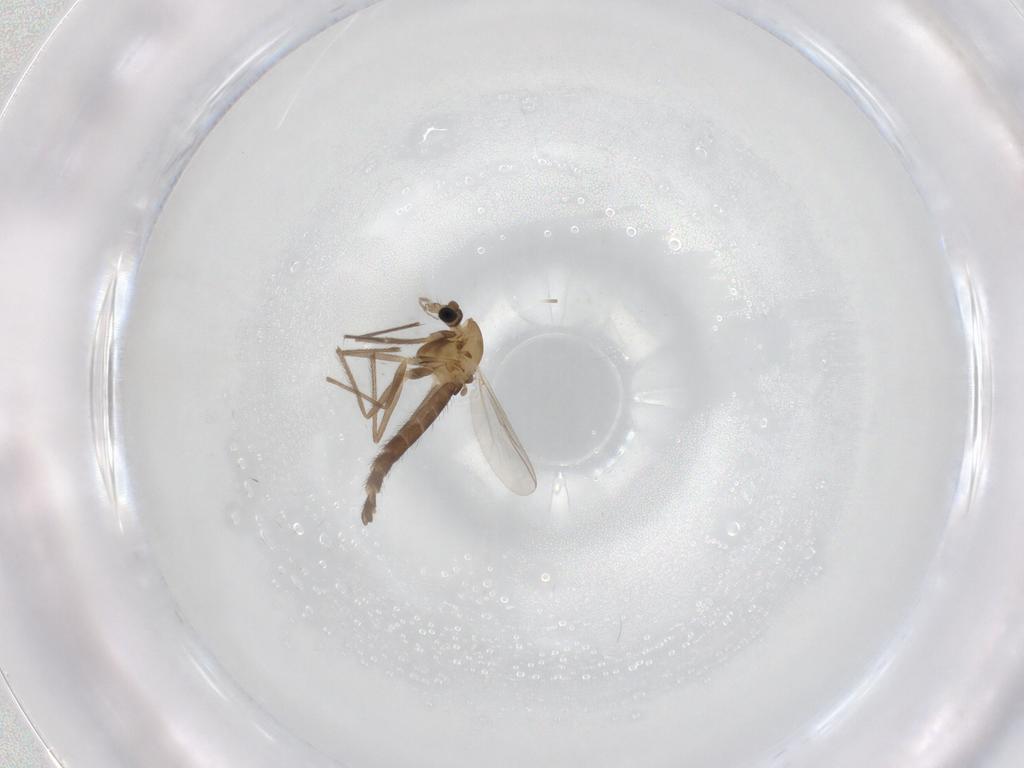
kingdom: Animalia
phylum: Arthropoda
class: Insecta
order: Diptera
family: Chironomidae
